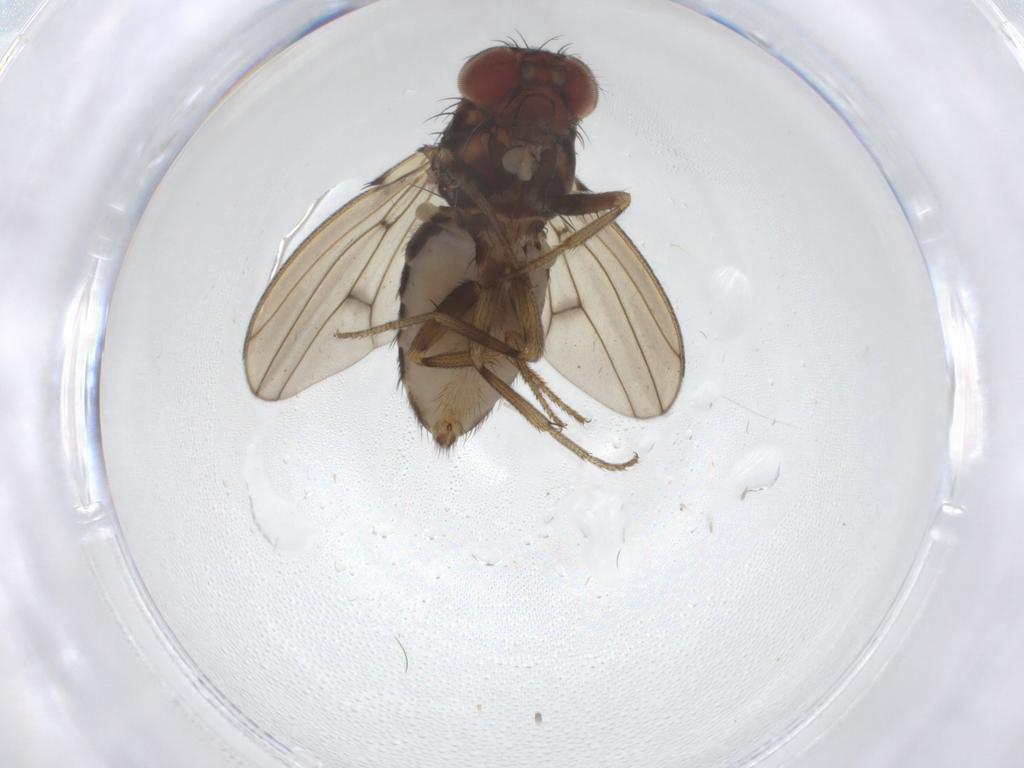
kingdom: Animalia
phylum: Arthropoda
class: Insecta
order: Diptera
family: Drosophilidae
